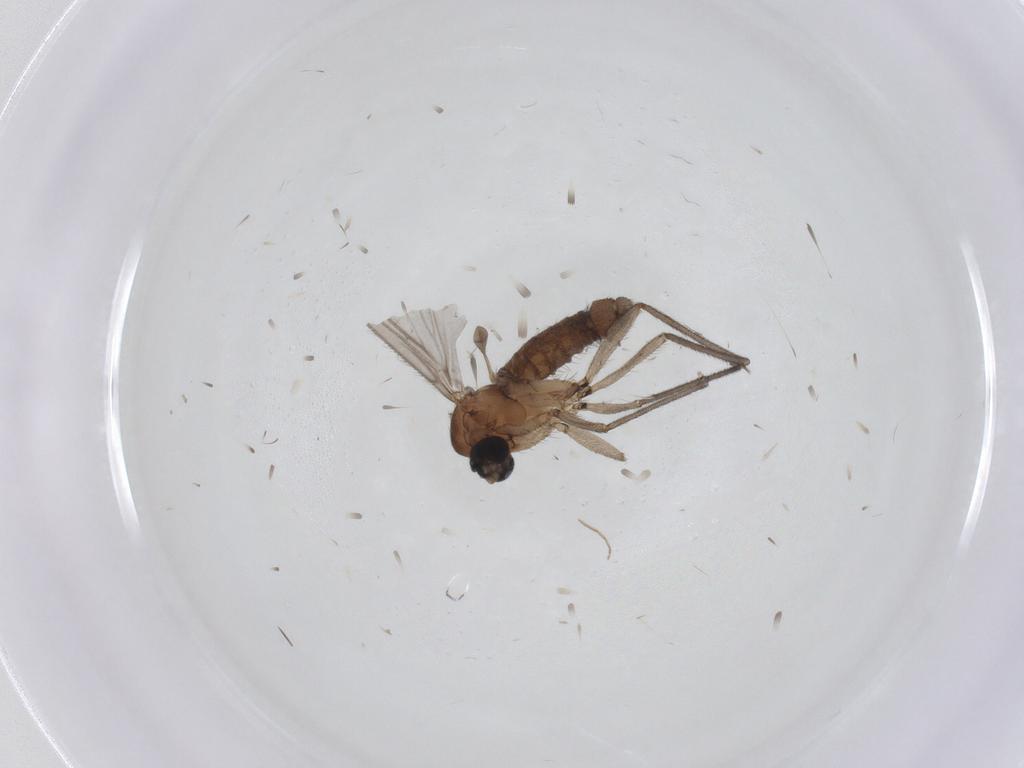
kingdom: Animalia
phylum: Arthropoda
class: Insecta
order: Diptera
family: Sciaridae
